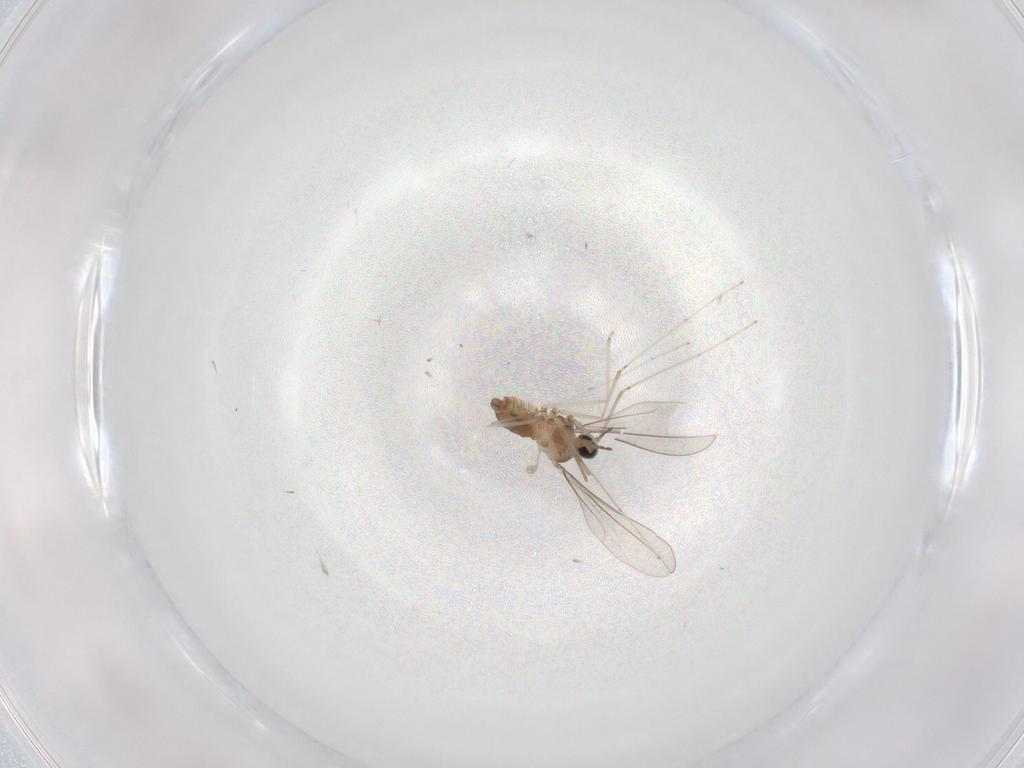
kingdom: Animalia
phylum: Arthropoda
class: Insecta
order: Diptera
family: Cecidomyiidae
